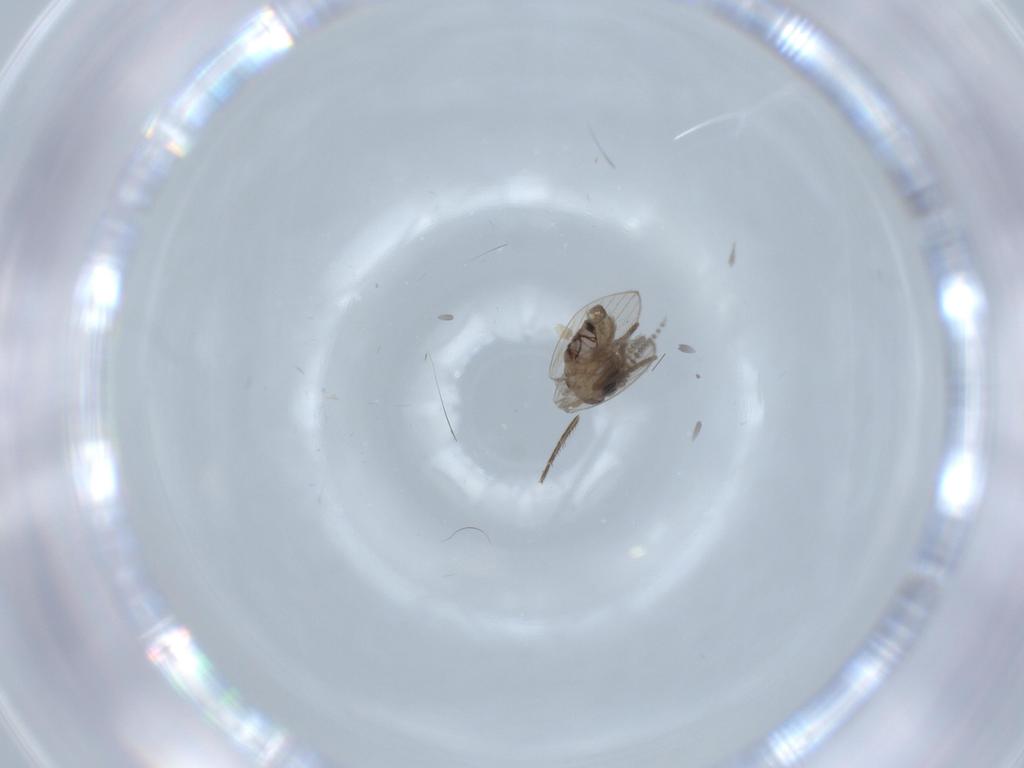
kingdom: Animalia
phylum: Arthropoda
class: Insecta
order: Diptera
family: Psychodidae
